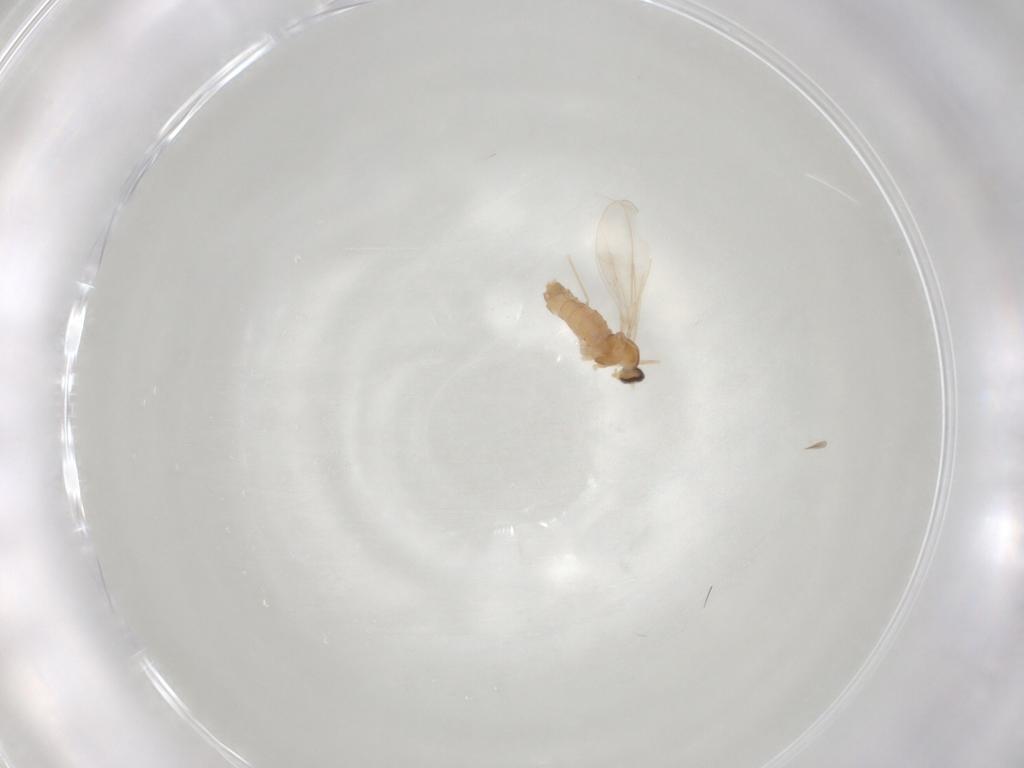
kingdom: Animalia
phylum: Arthropoda
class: Insecta
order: Diptera
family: Cecidomyiidae
